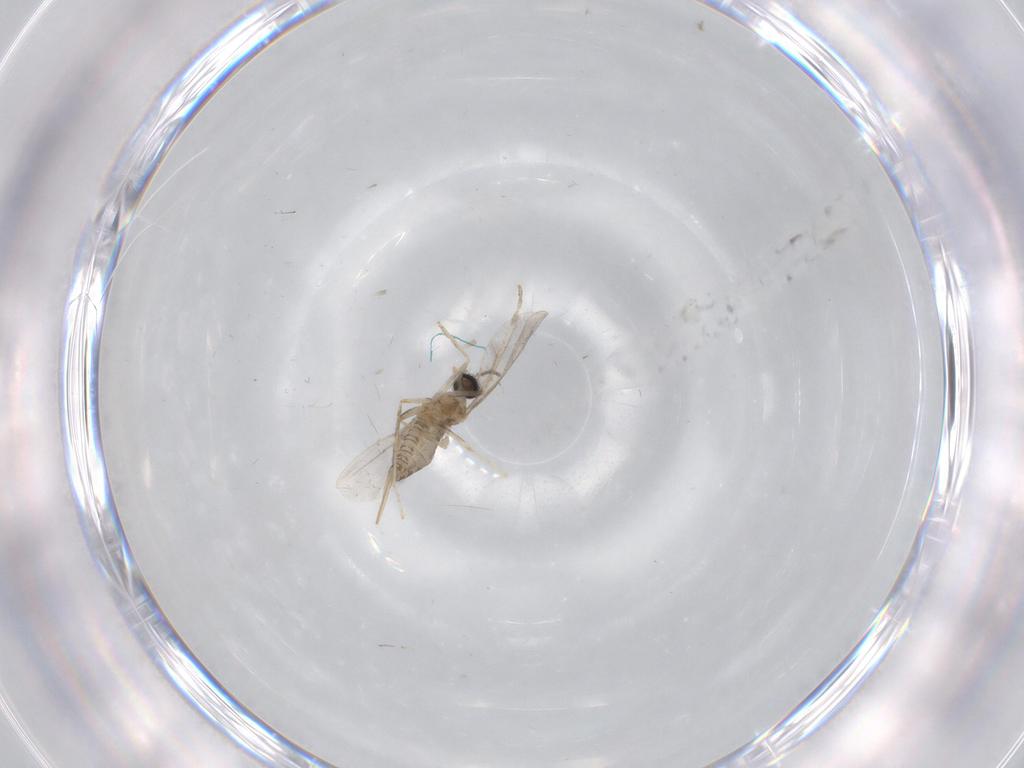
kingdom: Animalia
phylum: Arthropoda
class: Insecta
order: Diptera
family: Cecidomyiidae
